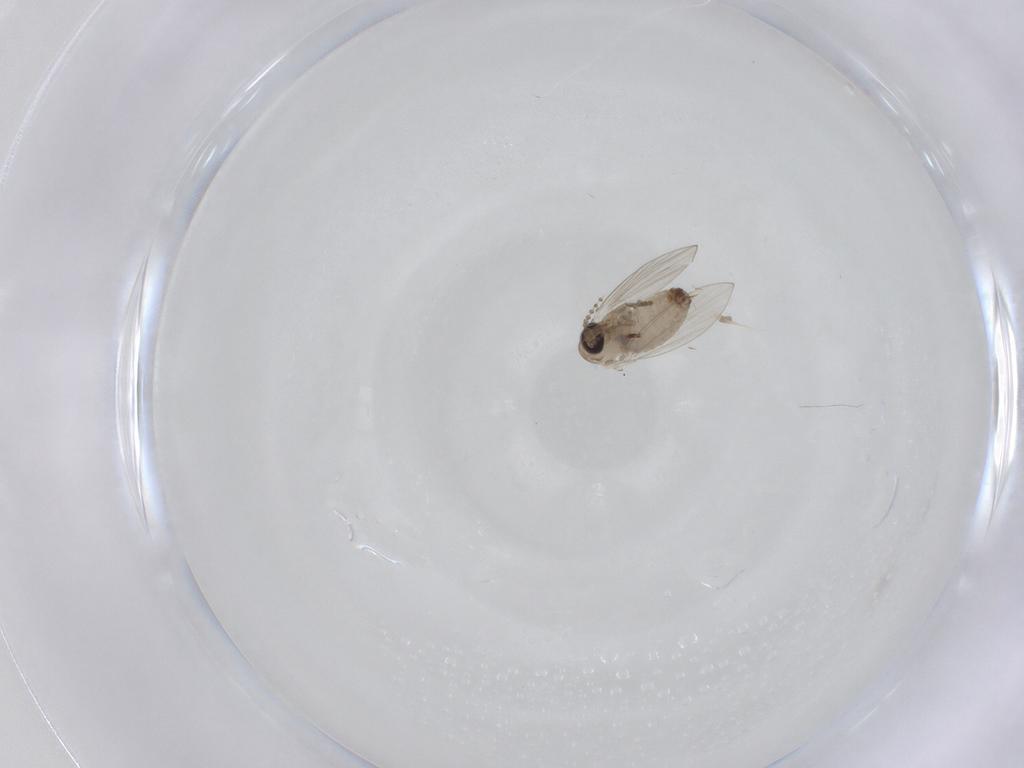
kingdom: Animalia
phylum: Arthropoda
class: Insecta
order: Diptera
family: Psychodidae
